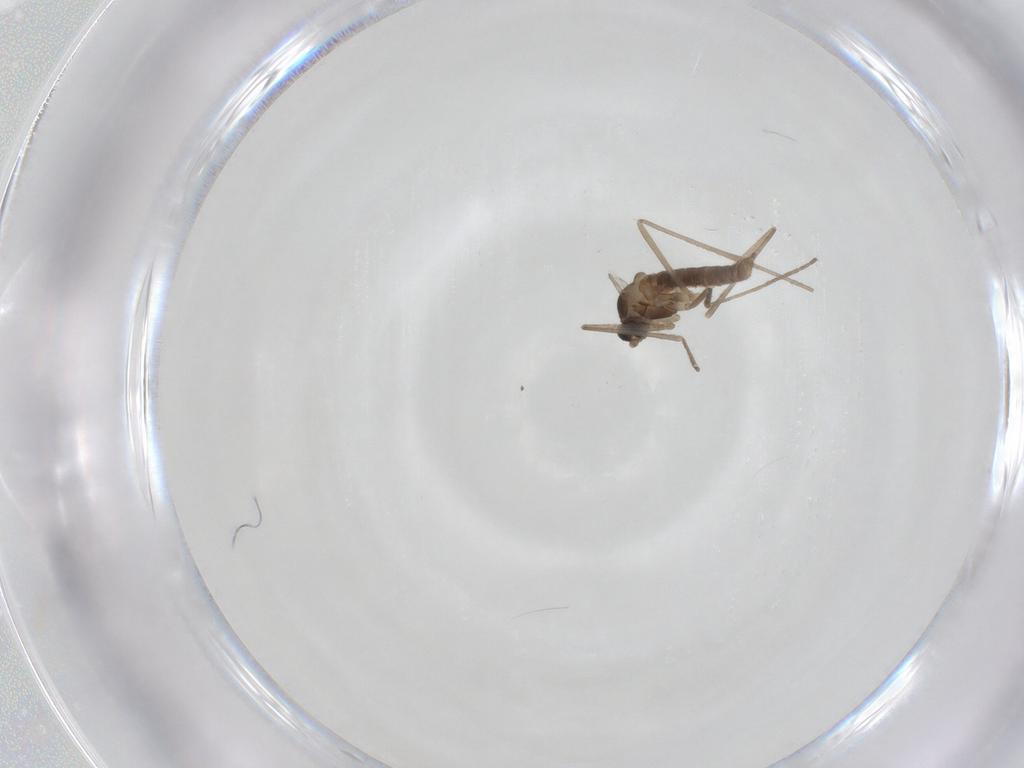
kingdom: Animalia
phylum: Arthropoda
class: Insecta
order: Diptera
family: Cecidomyiidae
